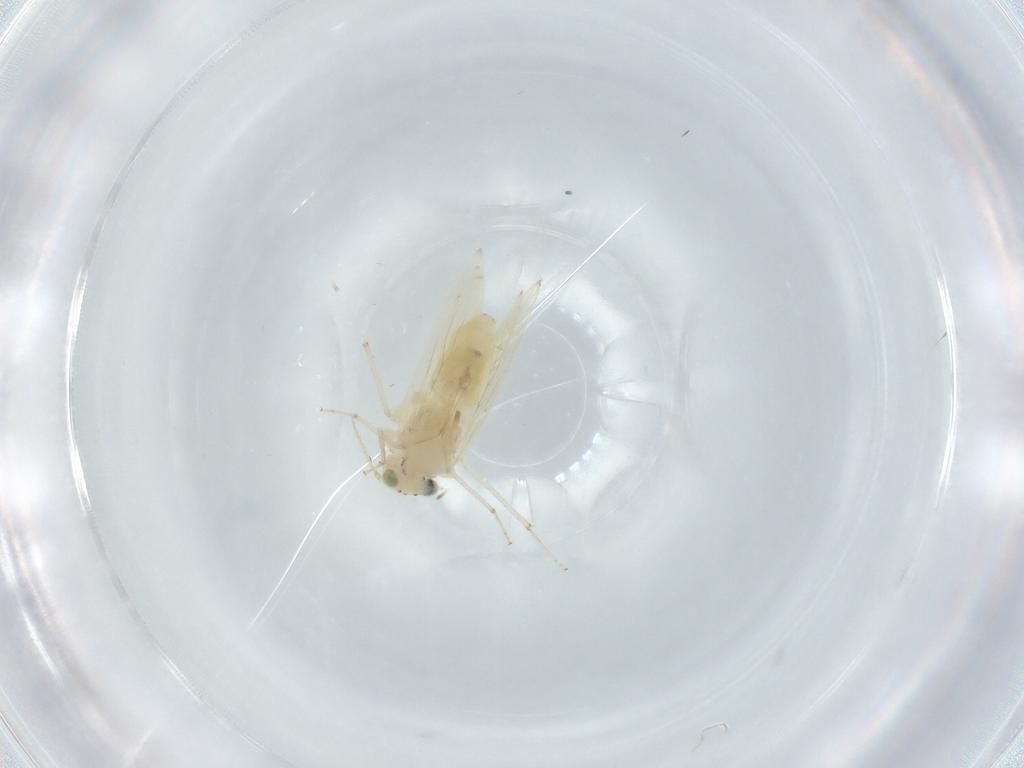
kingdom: Animalia
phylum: Arthropoda
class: Insecta
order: Psocodea
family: Lepidopsocidae
